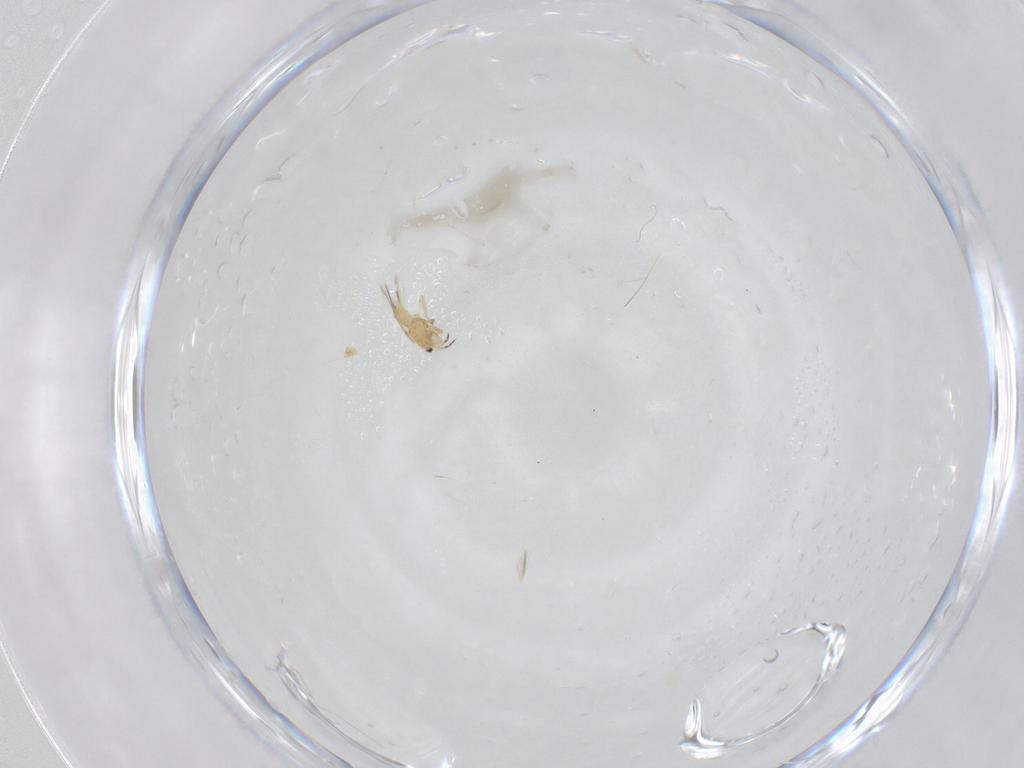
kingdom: Animalia
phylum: Arthropoda
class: Insecta
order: Thysanoptera
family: Thripidae
